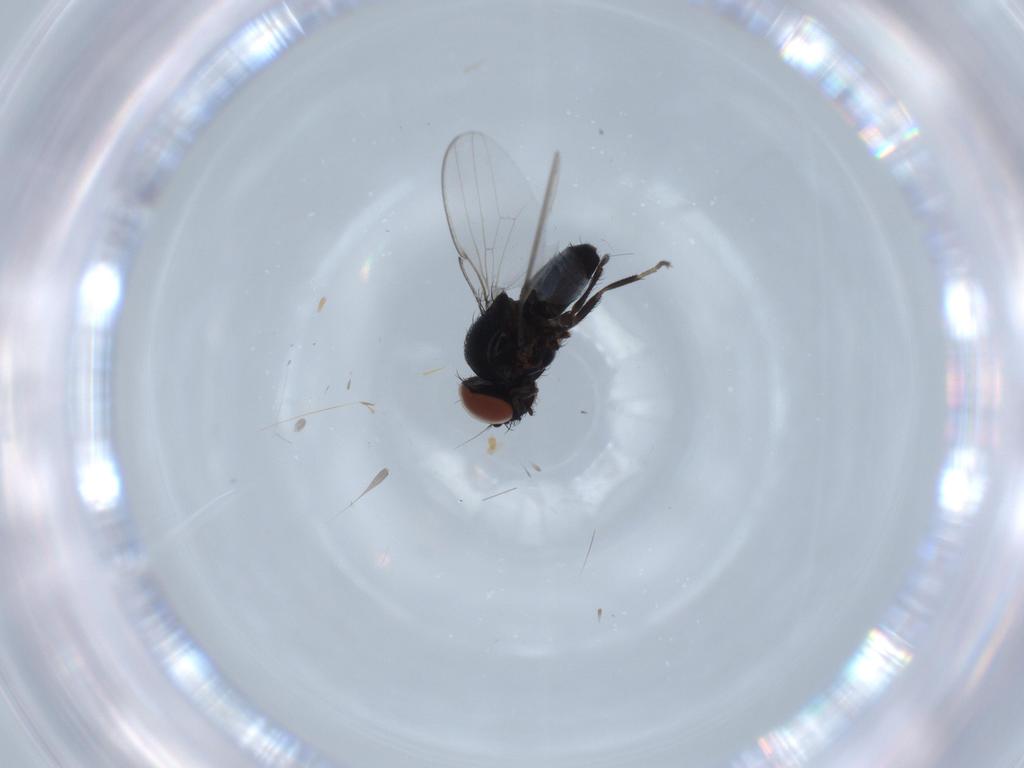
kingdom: Animalia
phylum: Arthropoda
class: Insecta
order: Diptera
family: Milichiidae
